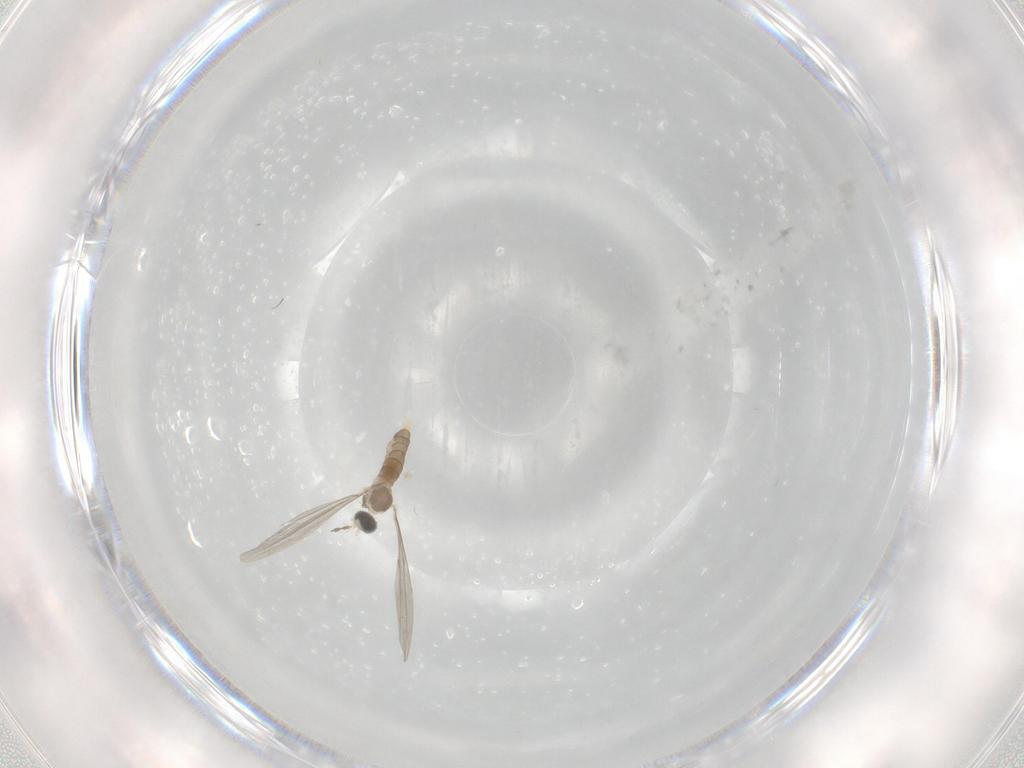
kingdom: Animalia
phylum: Arthropoda
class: Insecta
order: Diptera
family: Cecidomyiidae
